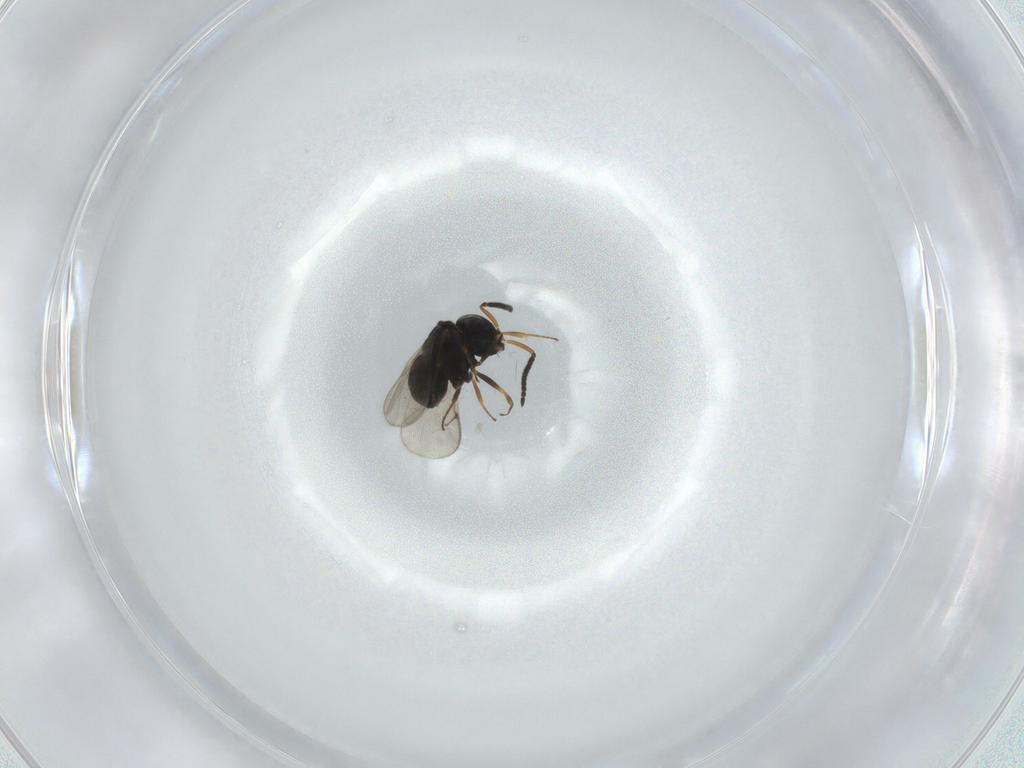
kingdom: Animalia
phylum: Arthropoda
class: Insecta
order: Hymenoptera
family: Scelionidae
